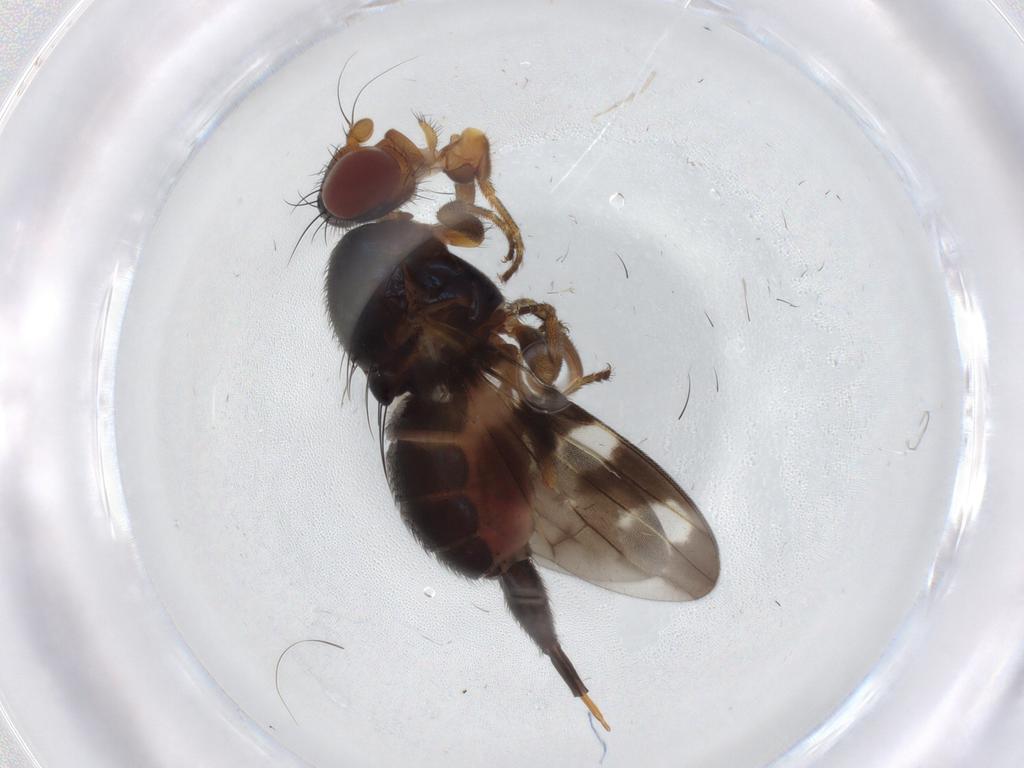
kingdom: Animalia
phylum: Arthropoda
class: Insecta
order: Diptera
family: Ulidiidae
